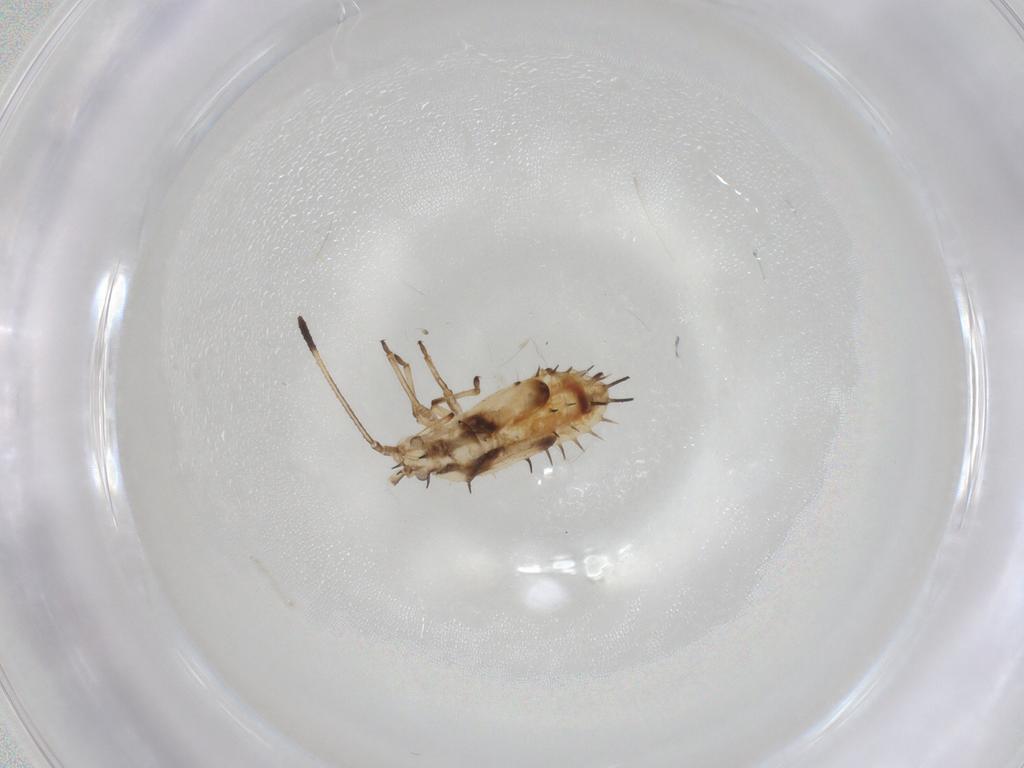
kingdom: Animalia
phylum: Arthropoda
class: Insecta
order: Hemiptera
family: Tingidae
